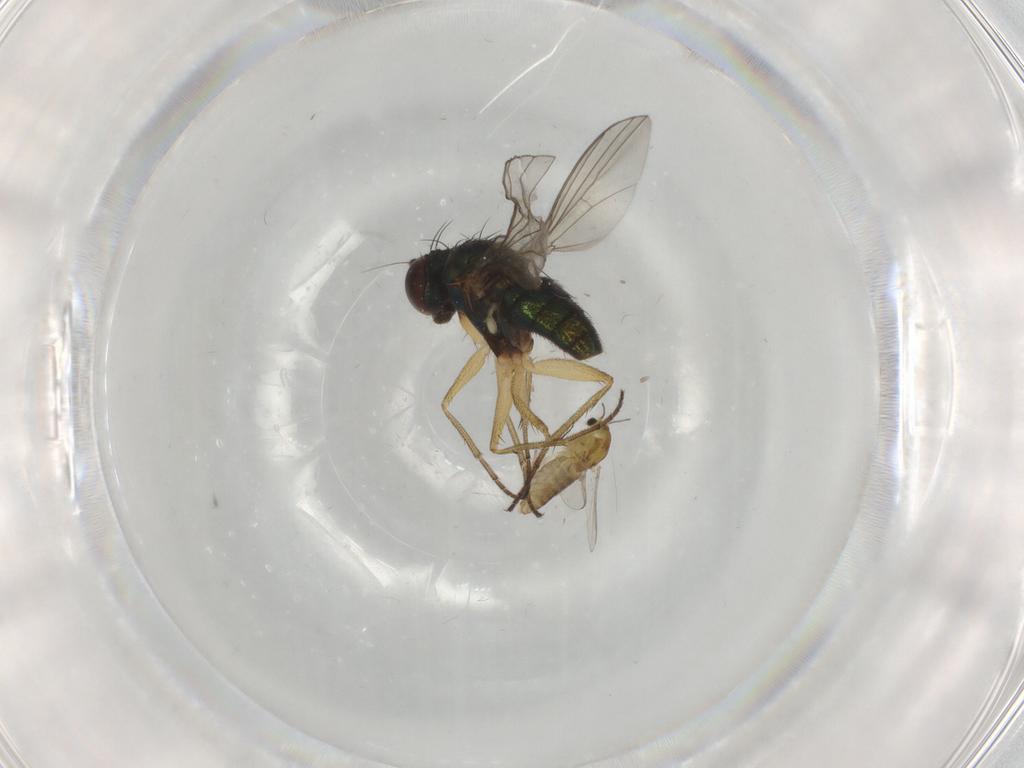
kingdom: Animalia
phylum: Arthropoda
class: Insecta
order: Diptera
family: Chironomidae
